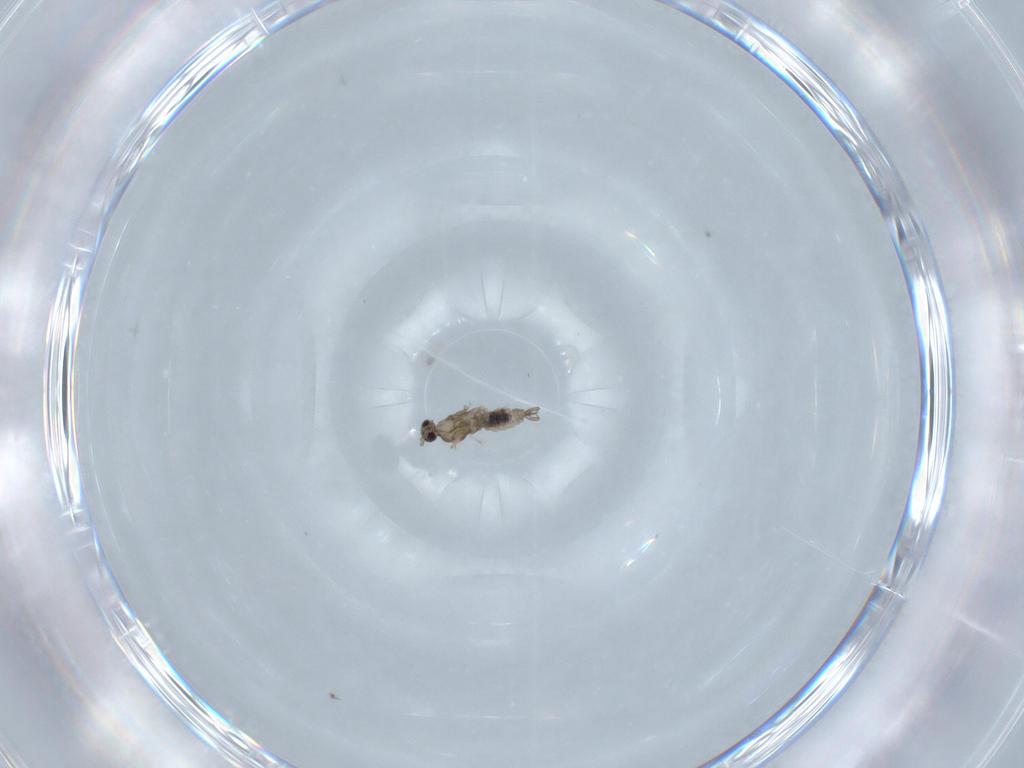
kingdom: Animalia
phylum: Arthropoda
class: Insecta
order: Diptera
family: Cecidomyiidae
